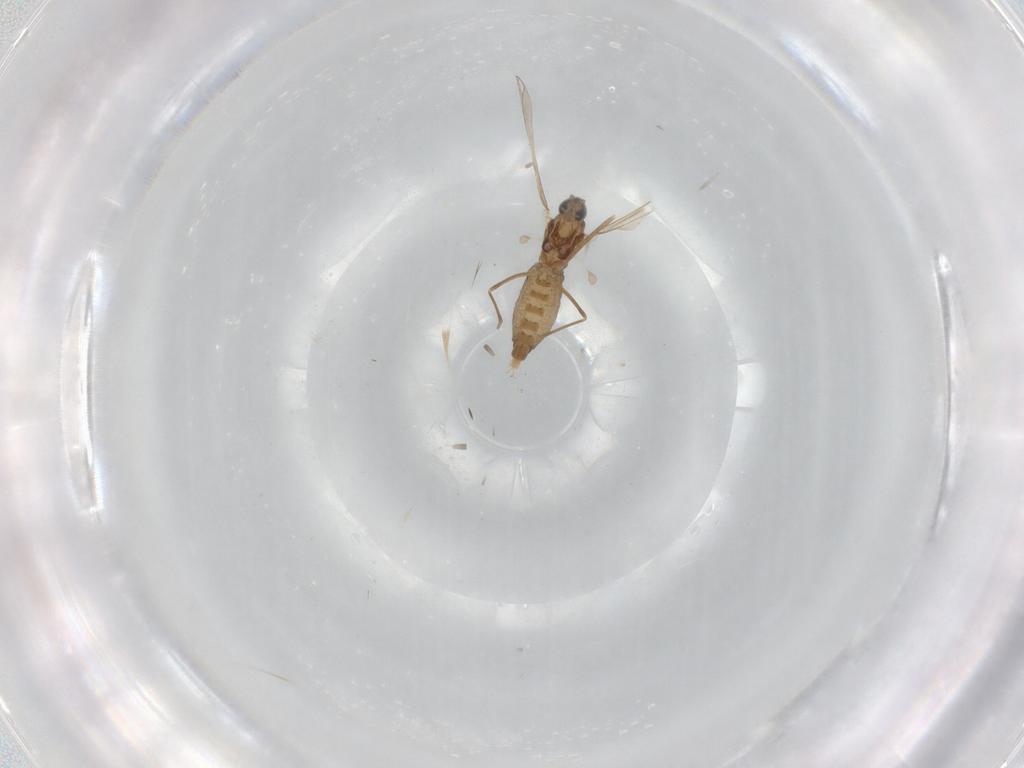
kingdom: Animalia
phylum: Arthropoda
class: Insecta
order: Diptera
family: Cecidomyiidae
